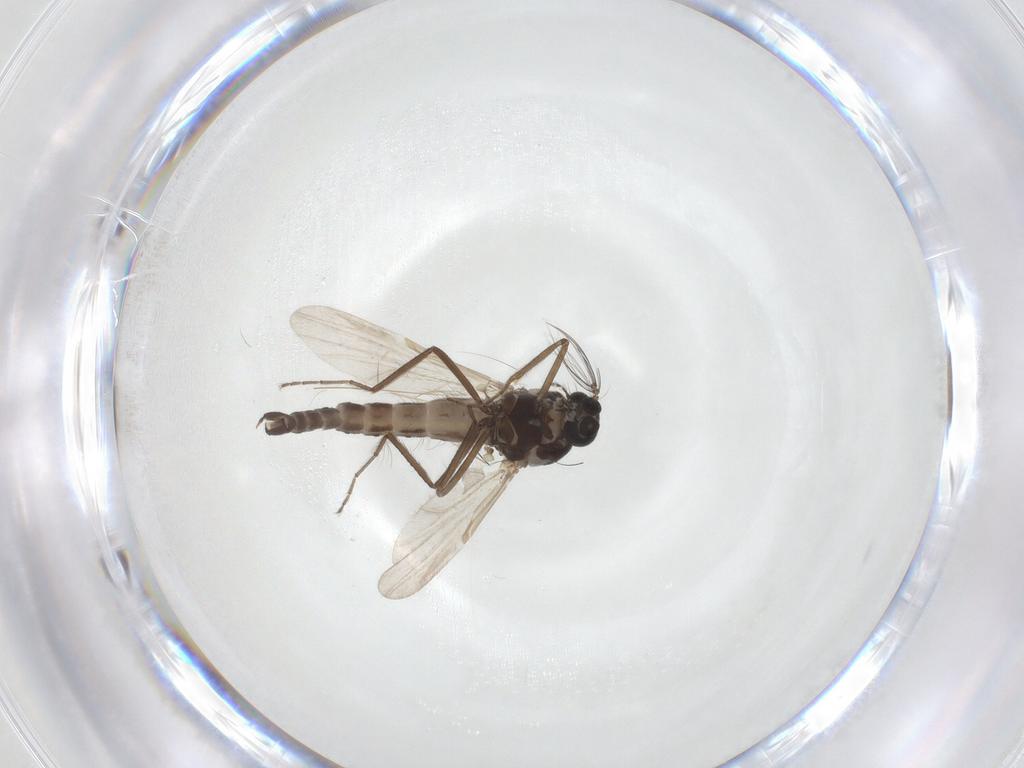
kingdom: Animalia
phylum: Arthropoda
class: Insecta
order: Diptera
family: Ceratopogonidae
